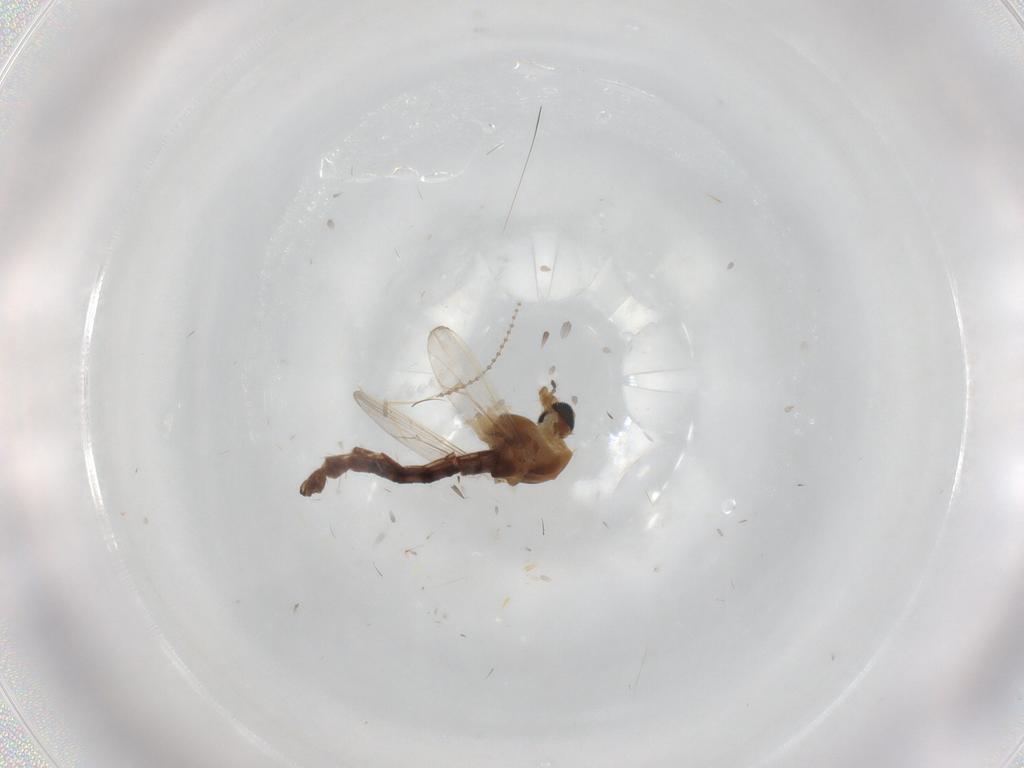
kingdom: Animalia
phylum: Arthropoda
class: Insecta
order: Diptera
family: Chironomidae
